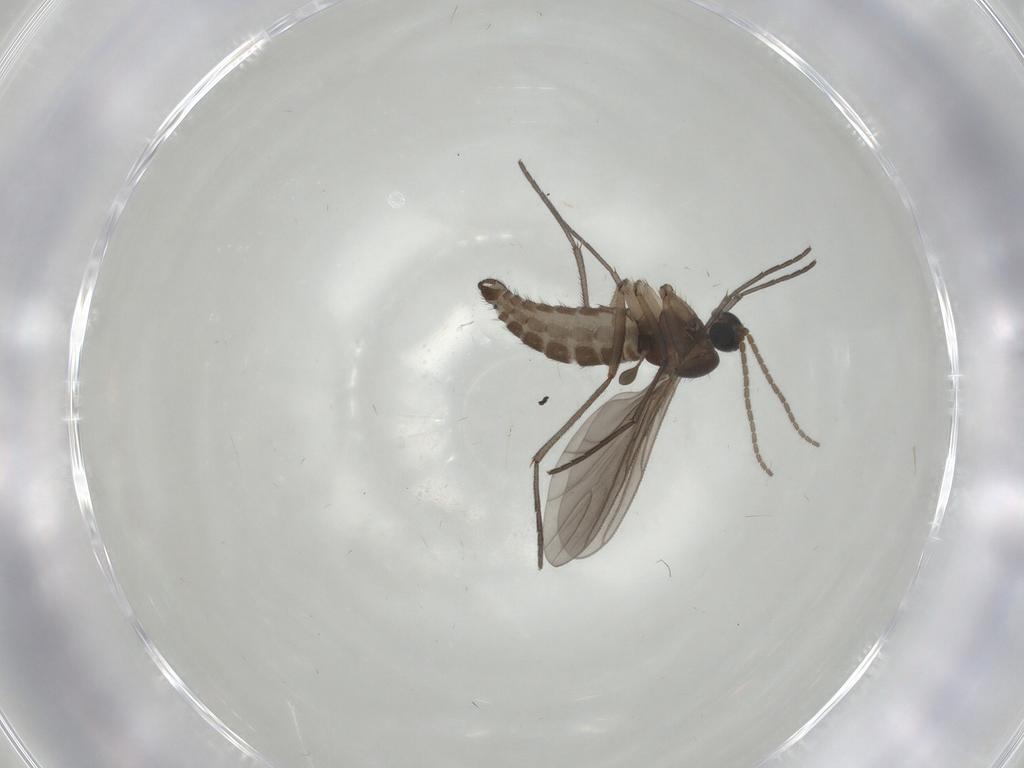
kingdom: Animalia
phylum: Arthropoda
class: Insecta
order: Diptera
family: Sciaridae
